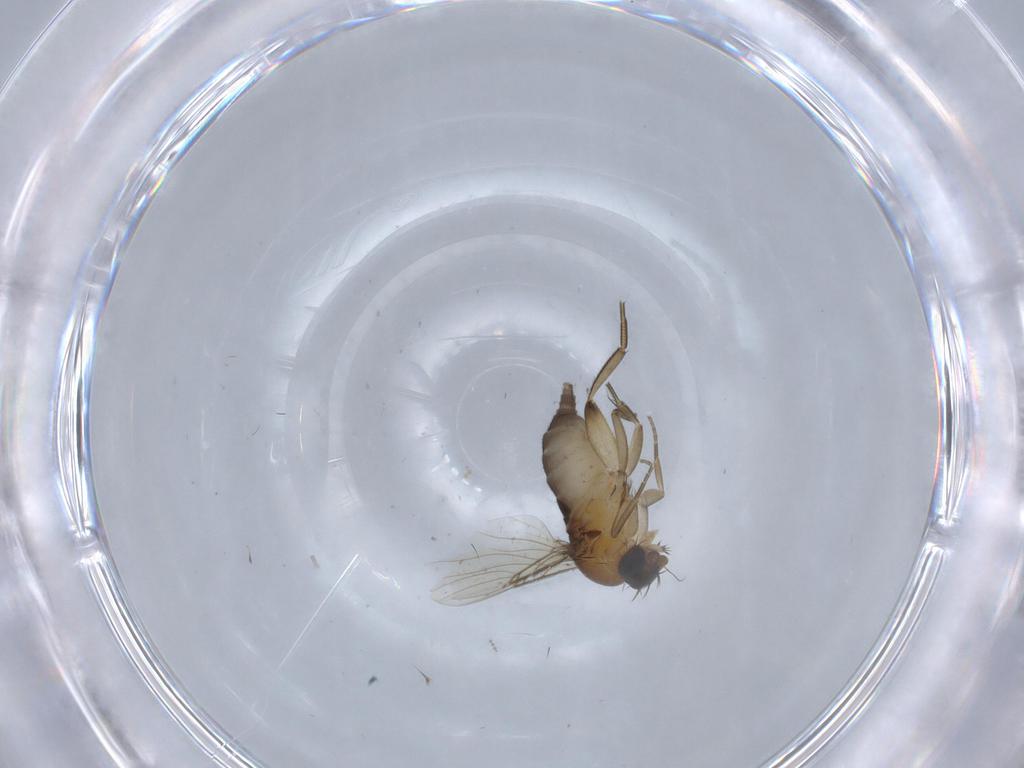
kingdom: Animalia
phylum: Arthropoda
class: Insecta
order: Diptera
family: Phoridae
